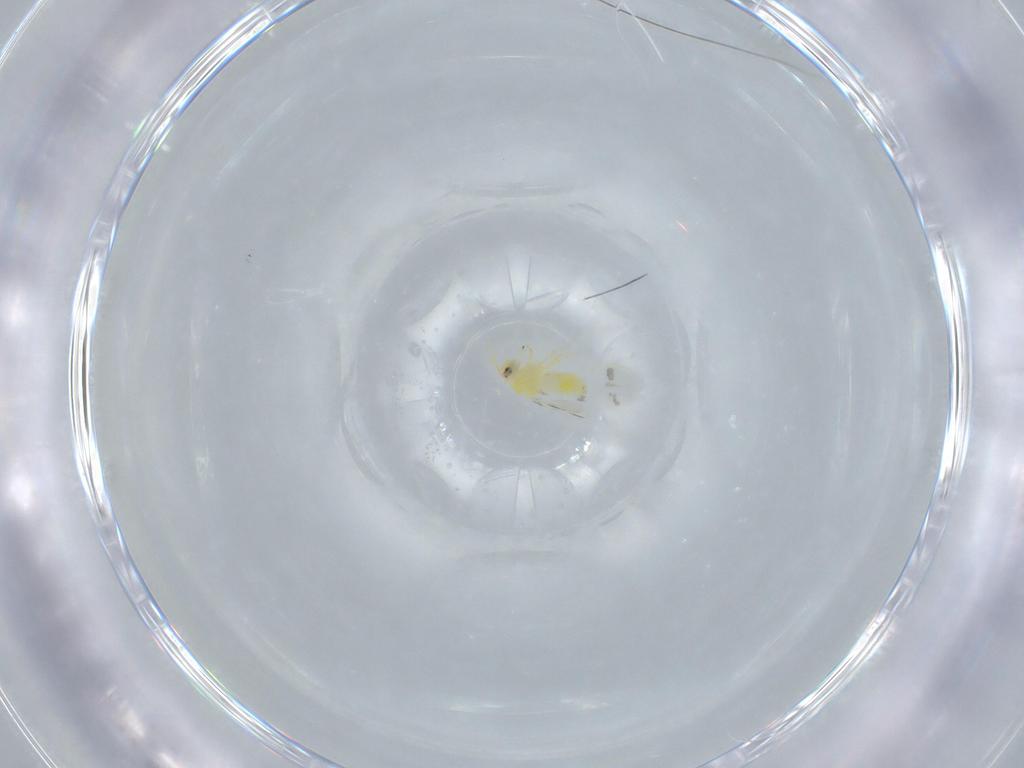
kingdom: Animalia
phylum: Arthropoda
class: Insecta
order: Hemiptera
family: Aleyrodidae
